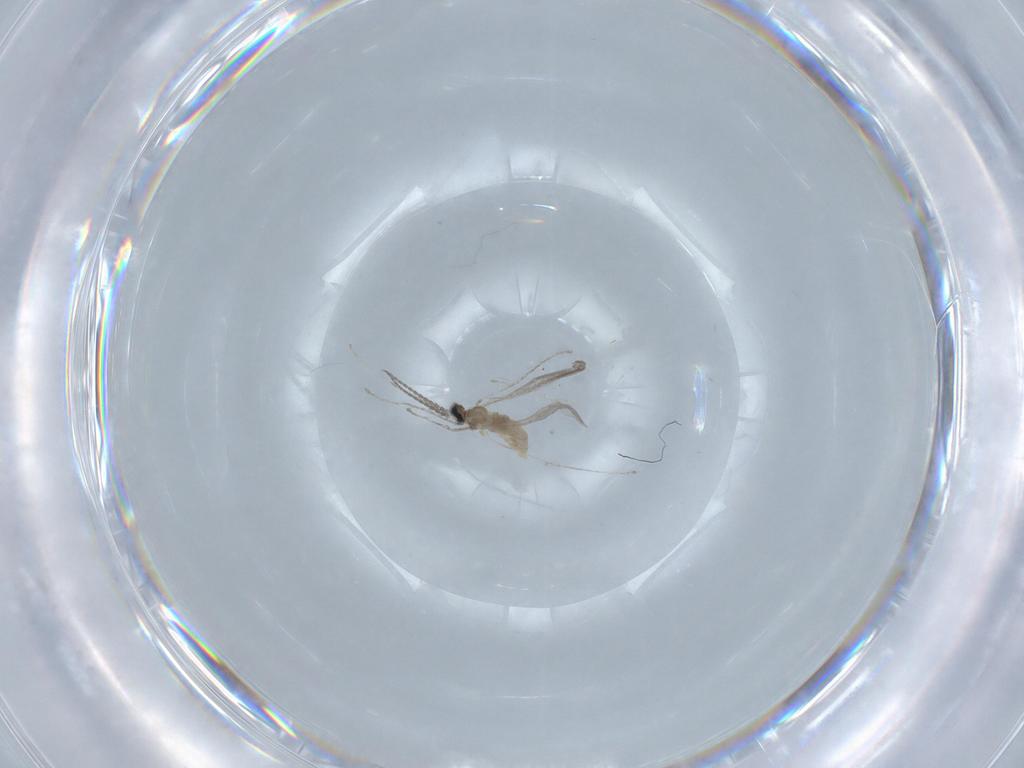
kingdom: Animalia
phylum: Arthropoda
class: Insecta
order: Diptera
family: Cecidomyiidae
